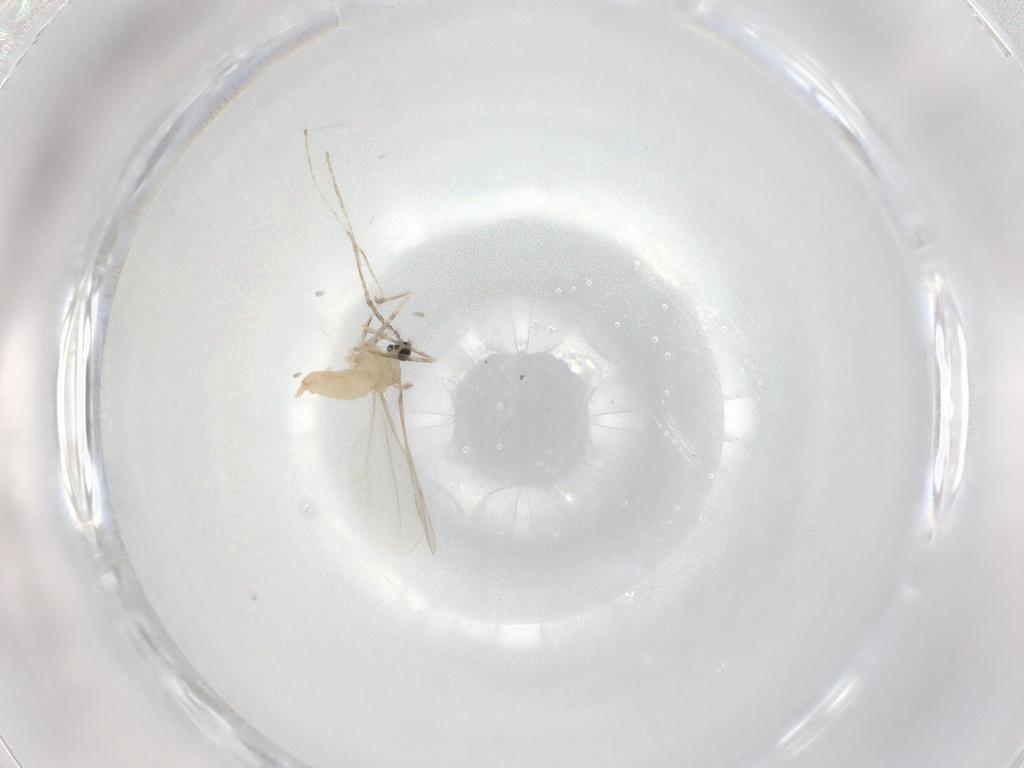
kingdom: Animalia
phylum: Arthropoda
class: Insecta
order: Diptera
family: Cecidomyiidae
